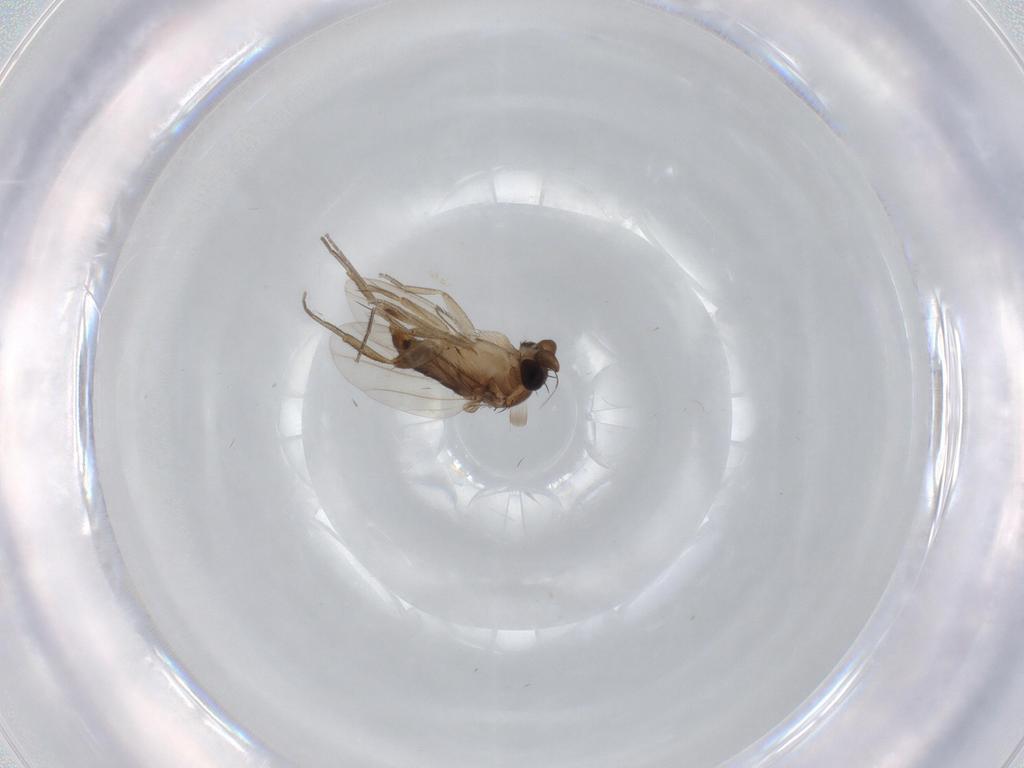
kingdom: Animalia
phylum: Arthropoda
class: Insecta
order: Diptera
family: Phoridae
